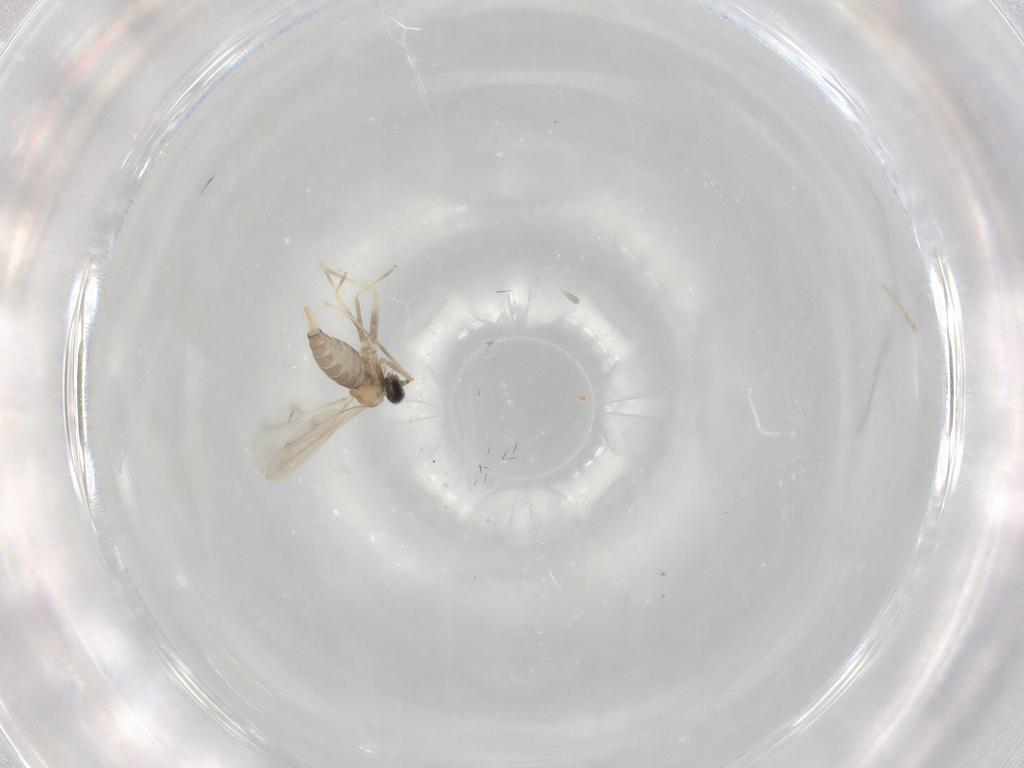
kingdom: Animalia
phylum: Arthropoda
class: Insecta
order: Diptera
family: Cecidomyiidae
